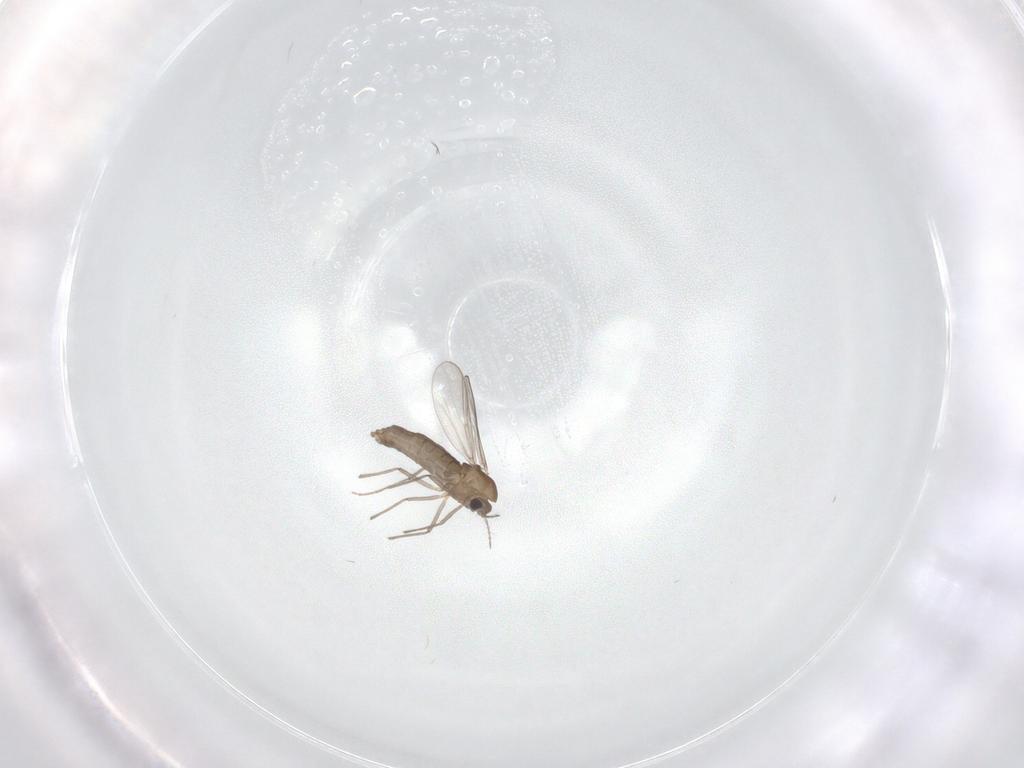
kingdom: Animalia
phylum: Arthropoda
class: Insecta
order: Diptera
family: Chironomidae
